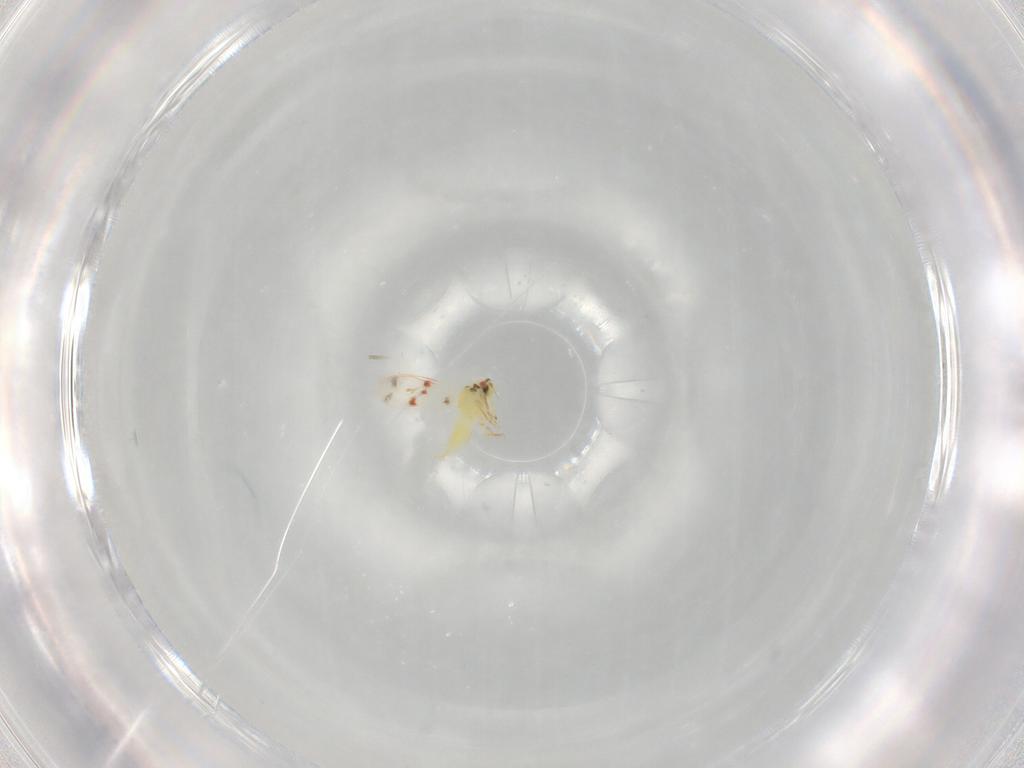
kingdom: Animalia
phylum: Arthropoda
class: Insecta
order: Hemiptera
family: Aleyrodidae
